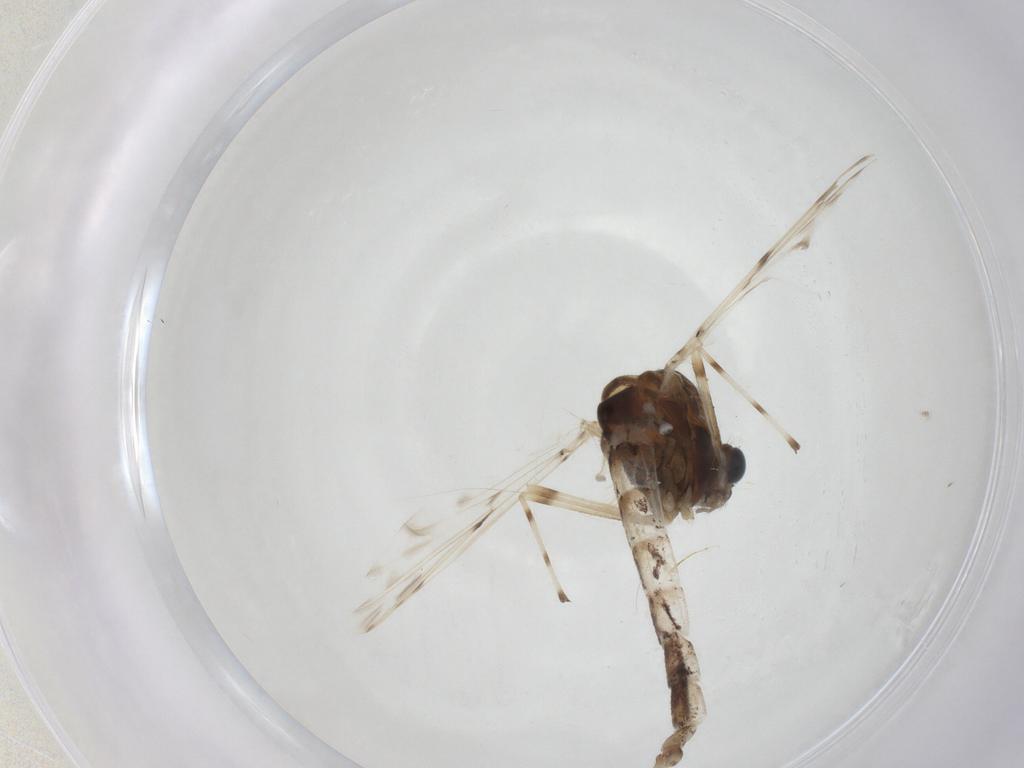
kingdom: Animalia
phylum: Arthropoda
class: Insecta
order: Diptera
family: Chironomidae
